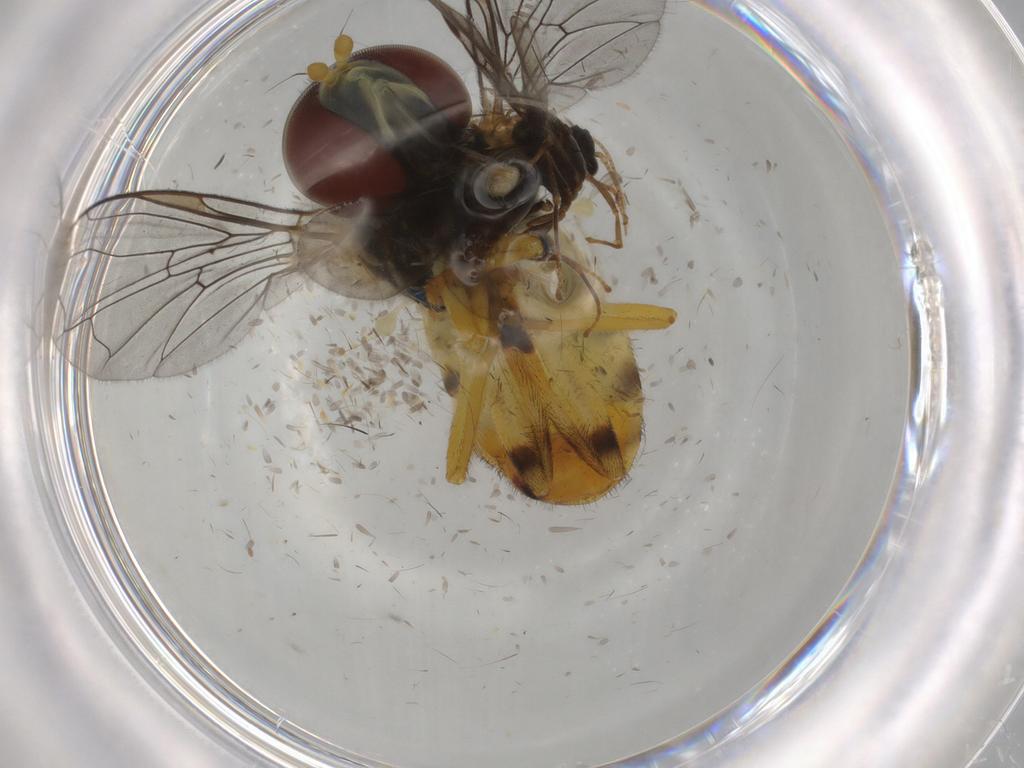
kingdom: Animalia
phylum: Arthropoda
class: Insecta
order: Diptera
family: Syrphidae
